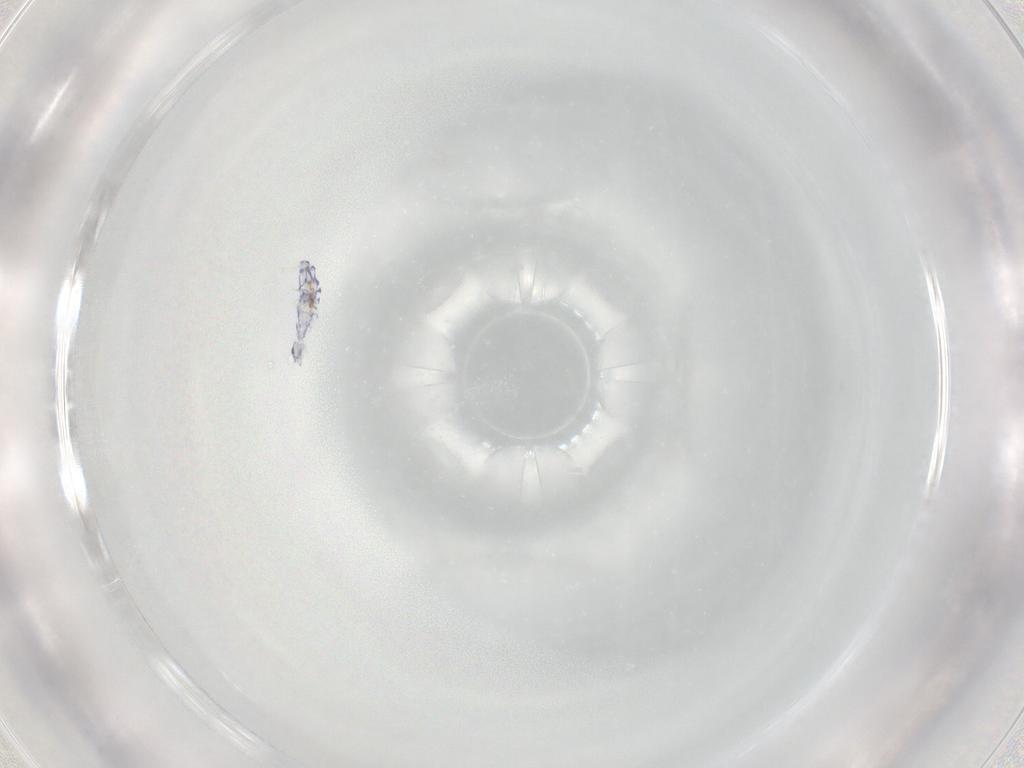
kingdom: Animalia
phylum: Arthropoda
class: Collembola
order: Entomobryomorpha
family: Entomobryidae
